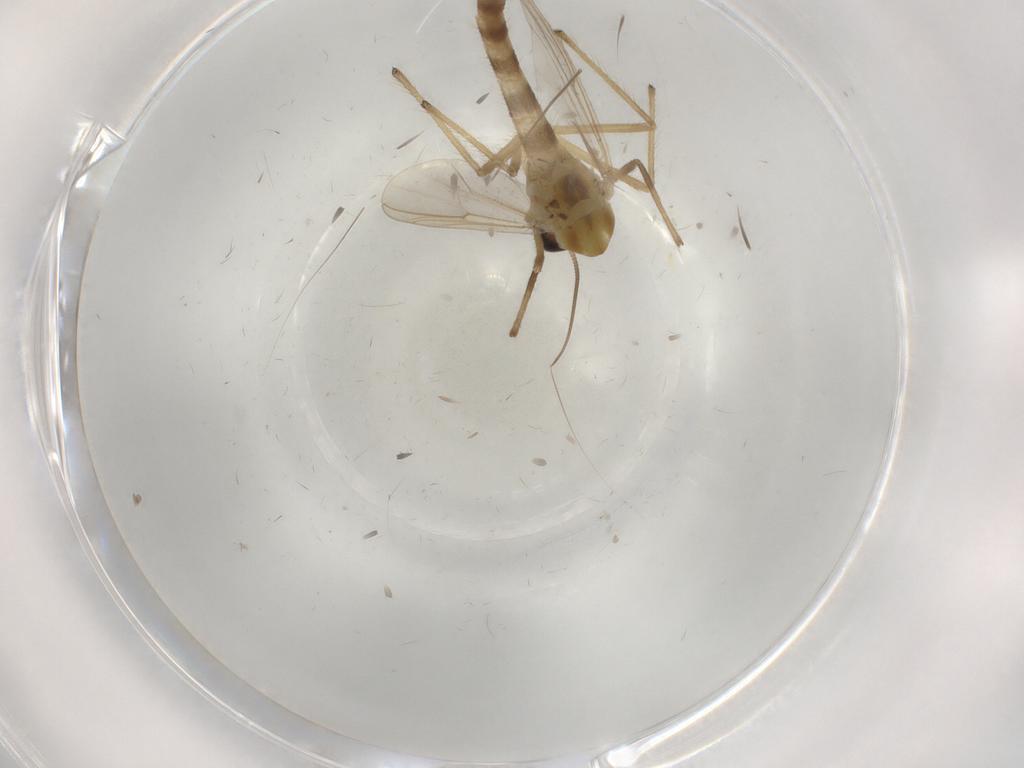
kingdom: Animalia
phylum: Arthropoda
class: Insecta
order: Diptera
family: Chironomidae
